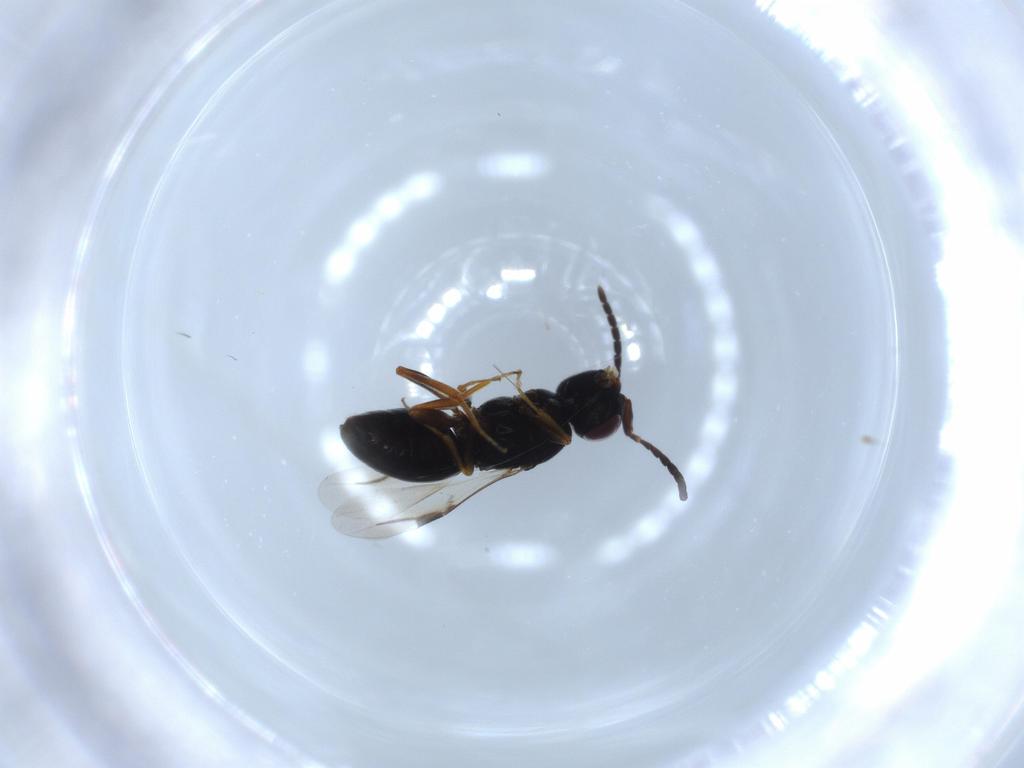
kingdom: Animalia
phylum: Arthropoda
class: Insecta
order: Hymenoptera
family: Megaspilidae
